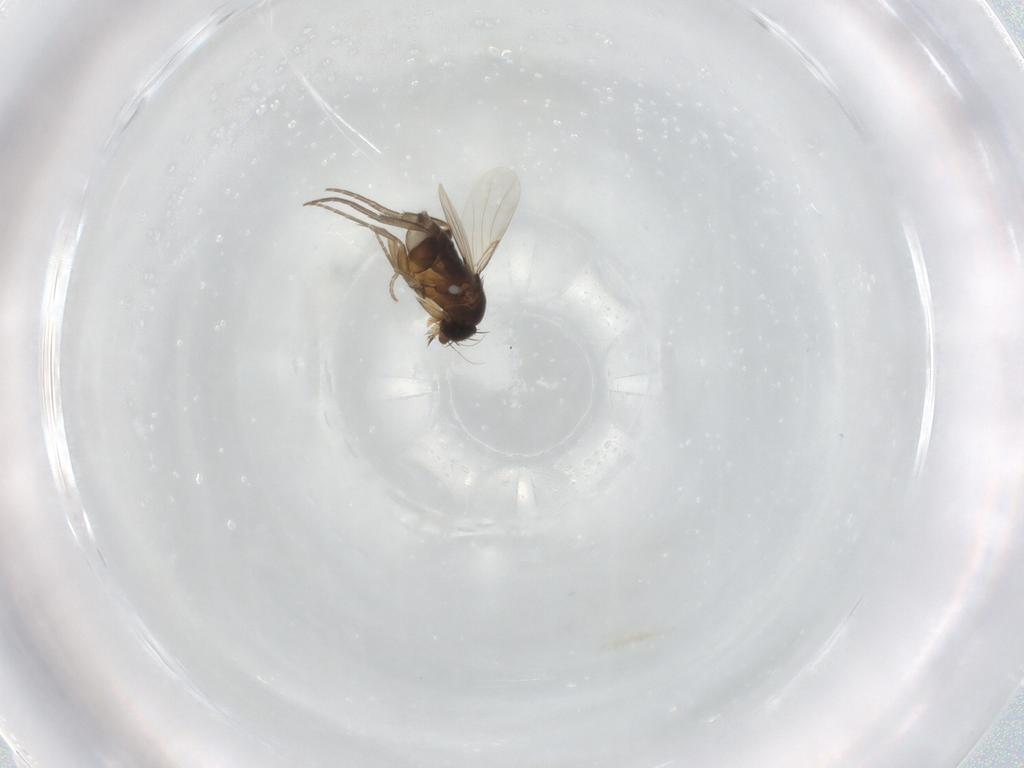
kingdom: Animalia
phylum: Arthropoda
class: Insecta
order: Diptera
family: Phoridae
